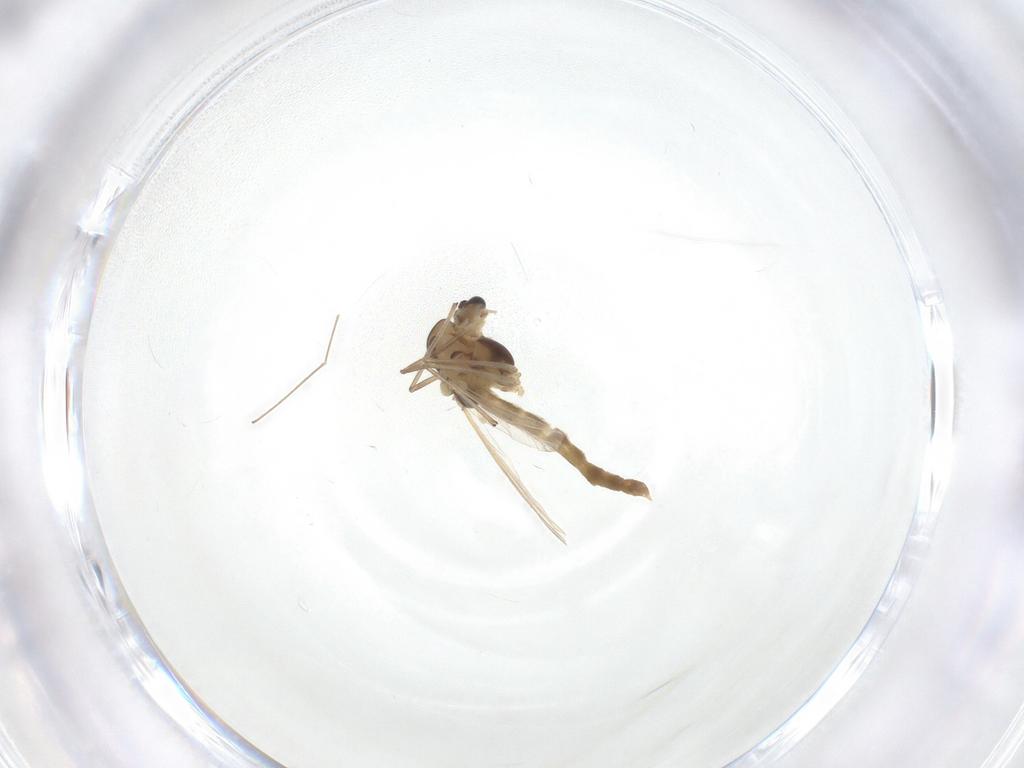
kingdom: Animalia
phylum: Arthropoda
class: Insecta
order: Diptera
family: Chironomidae
